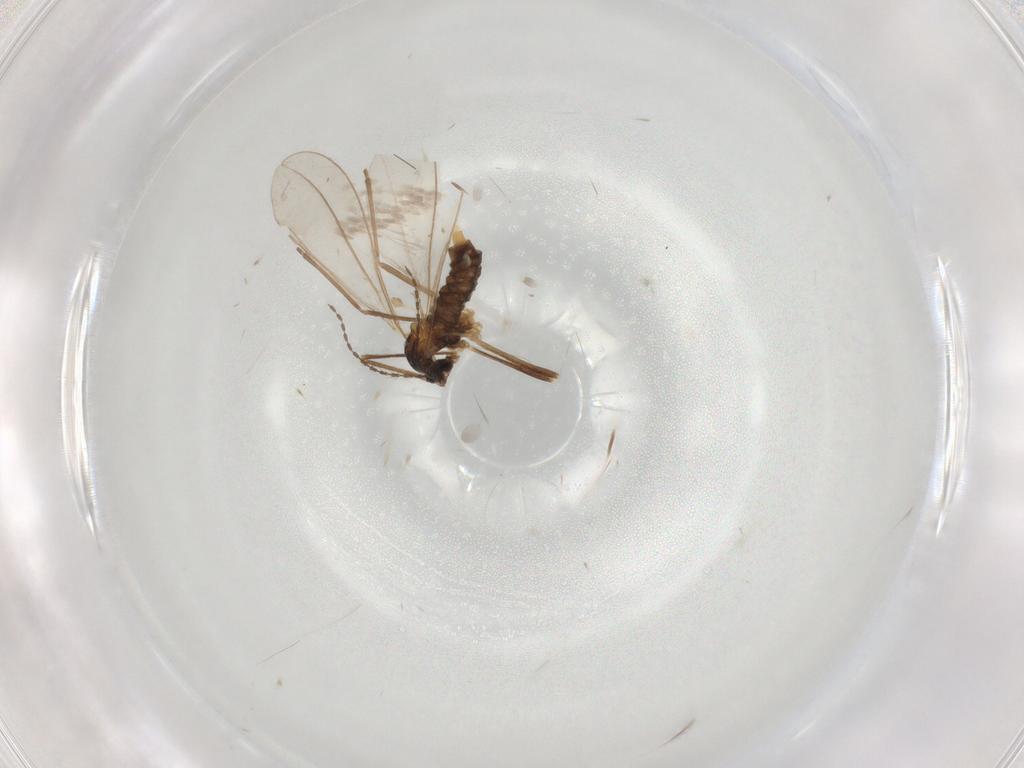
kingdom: Animalia
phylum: Arthropoda
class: Insecta
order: Diptera
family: Cecidomyiidae
